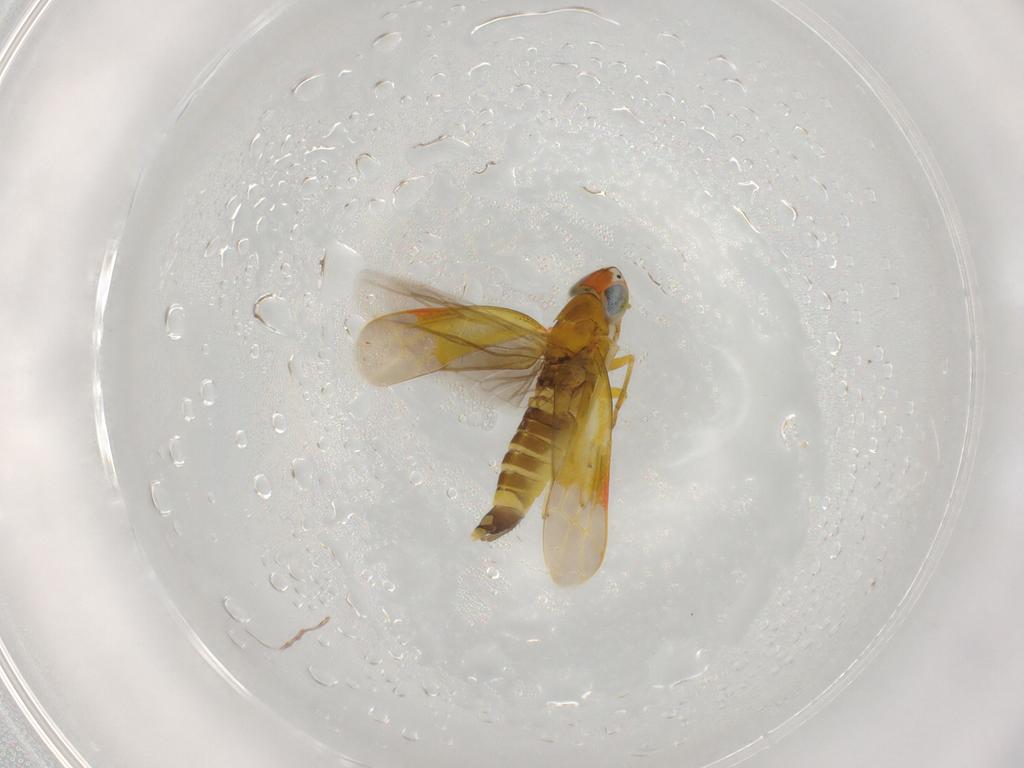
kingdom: Animalia
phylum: Arthropoda
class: Insecta
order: Hemiptera
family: Cicadellidae
